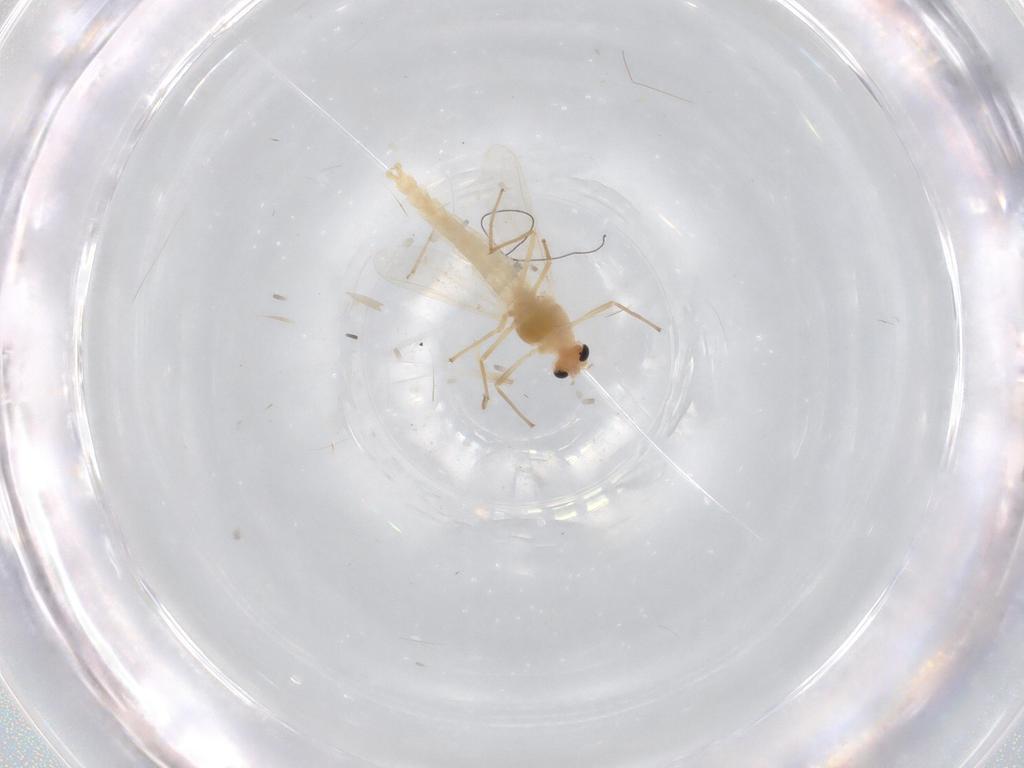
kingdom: Animalia
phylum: Arthropoda
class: Insecta
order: Diptera
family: Chironomidae
